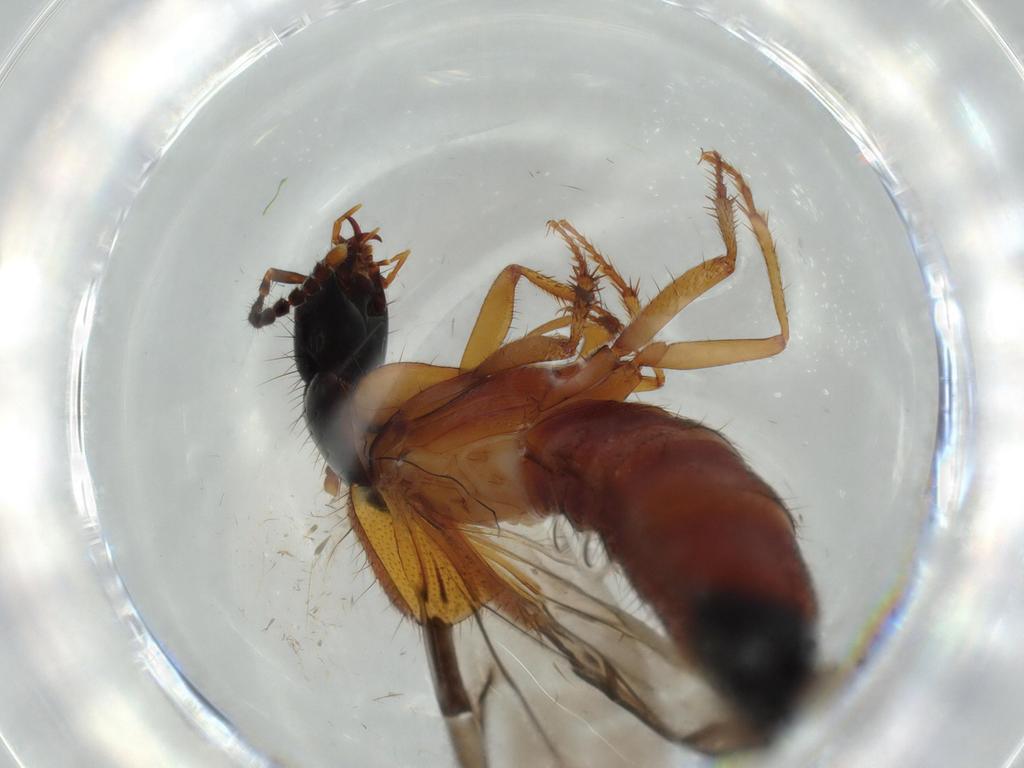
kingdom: Animalia
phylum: Arthropoda
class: Insecta
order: Coleoptera
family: Staphylinidae
